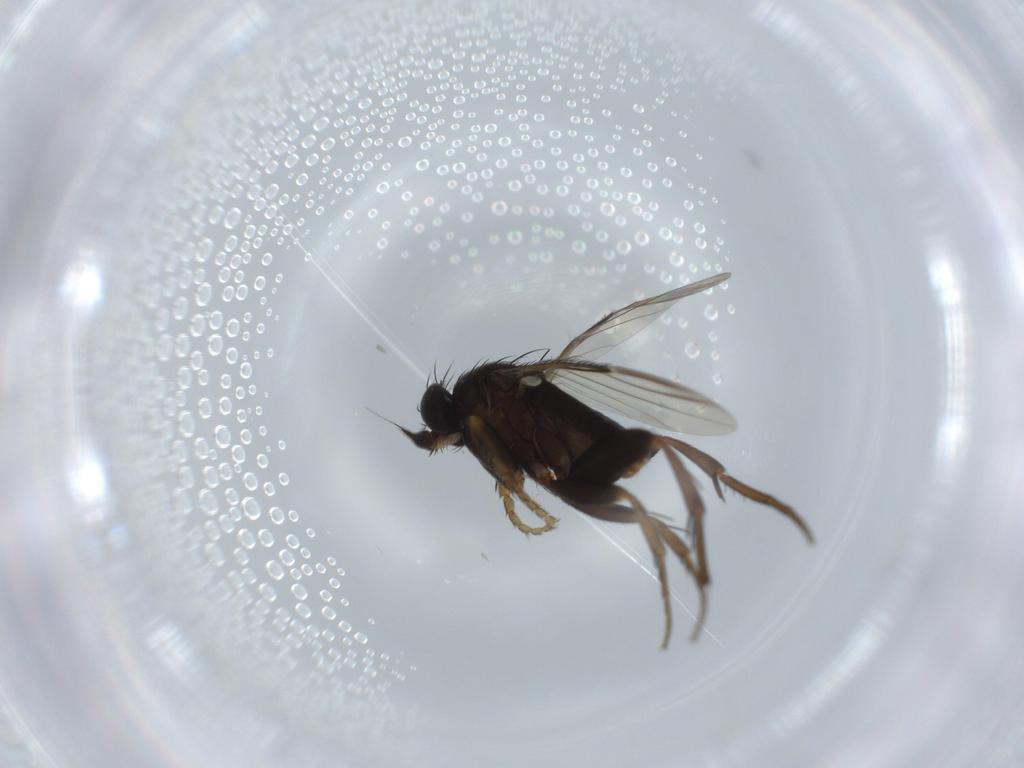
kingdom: Animalia
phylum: Arthropoda
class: Insecta
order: Diptera
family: Phoridae
